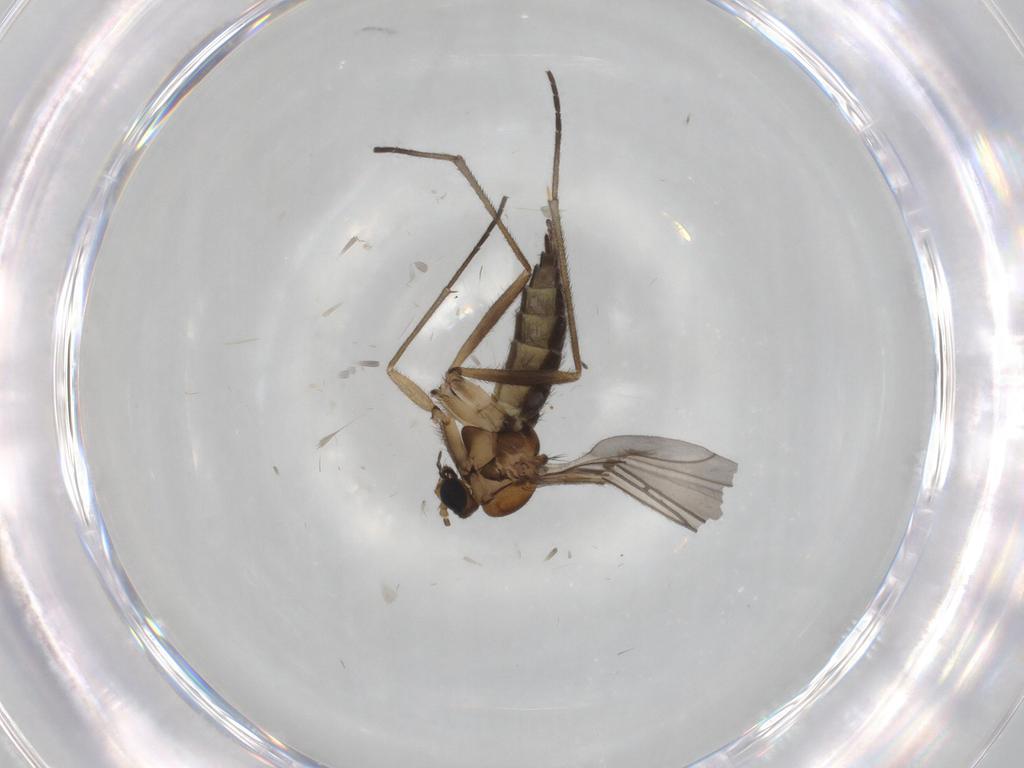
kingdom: Animalia
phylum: Arthropoda
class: Insecta
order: Diptera
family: Sciaridae
